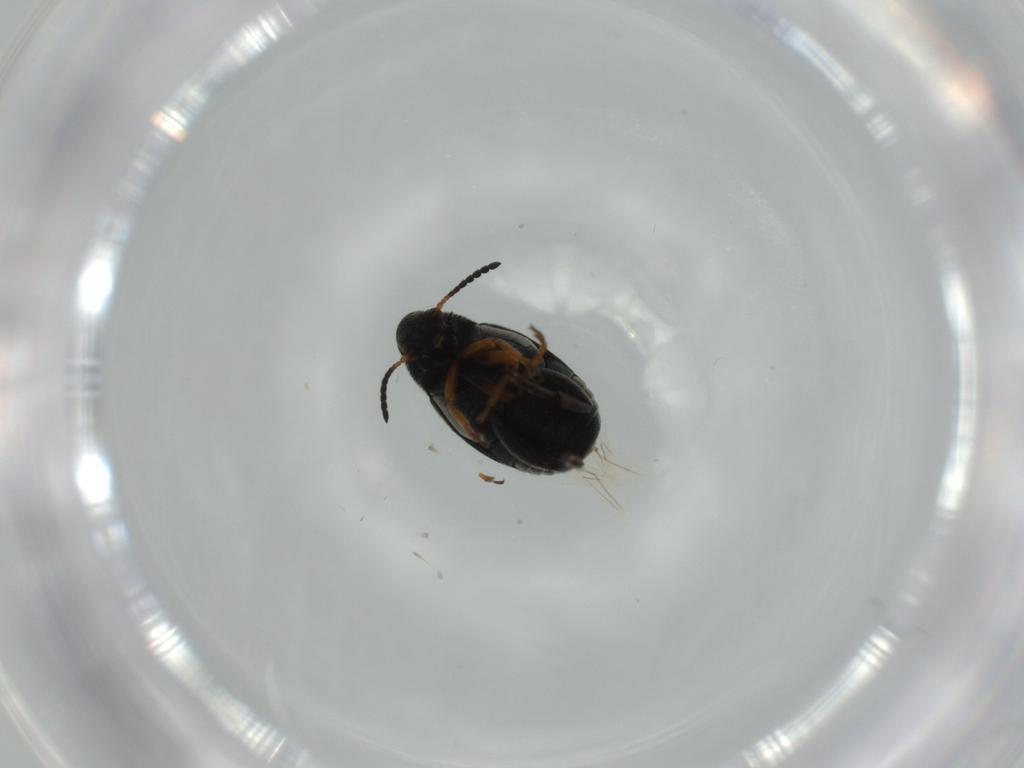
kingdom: Animalia
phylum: Arthropoda
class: Insecta
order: Coleoptera
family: Chrysomelidae
